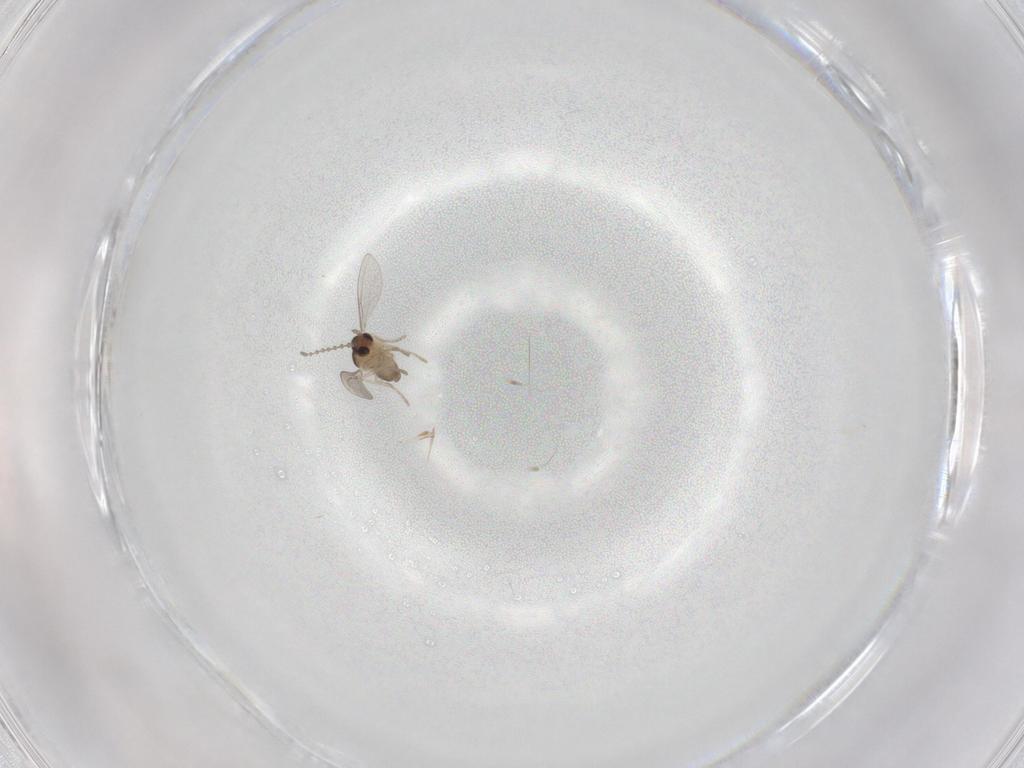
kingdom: Animalia
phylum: Arthropoda
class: Insecta
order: Diptera
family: Cecidomyiidae
